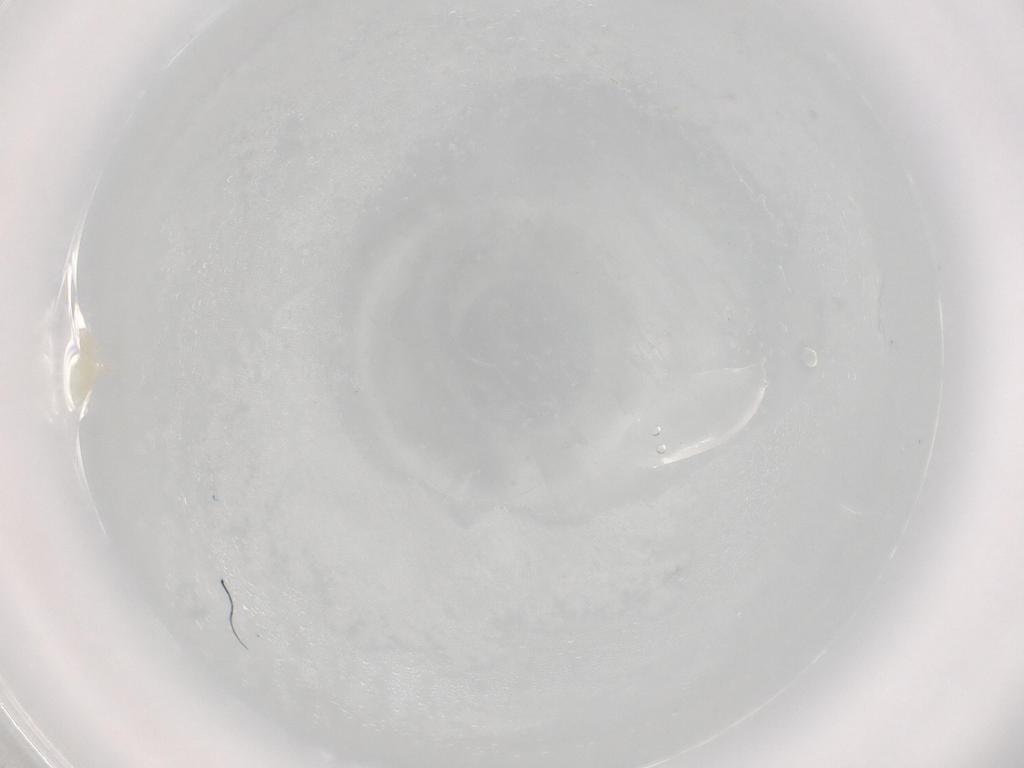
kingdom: Animalia
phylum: Arthropoda
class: Collembola
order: Poduromorpha
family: Onychiuridae
